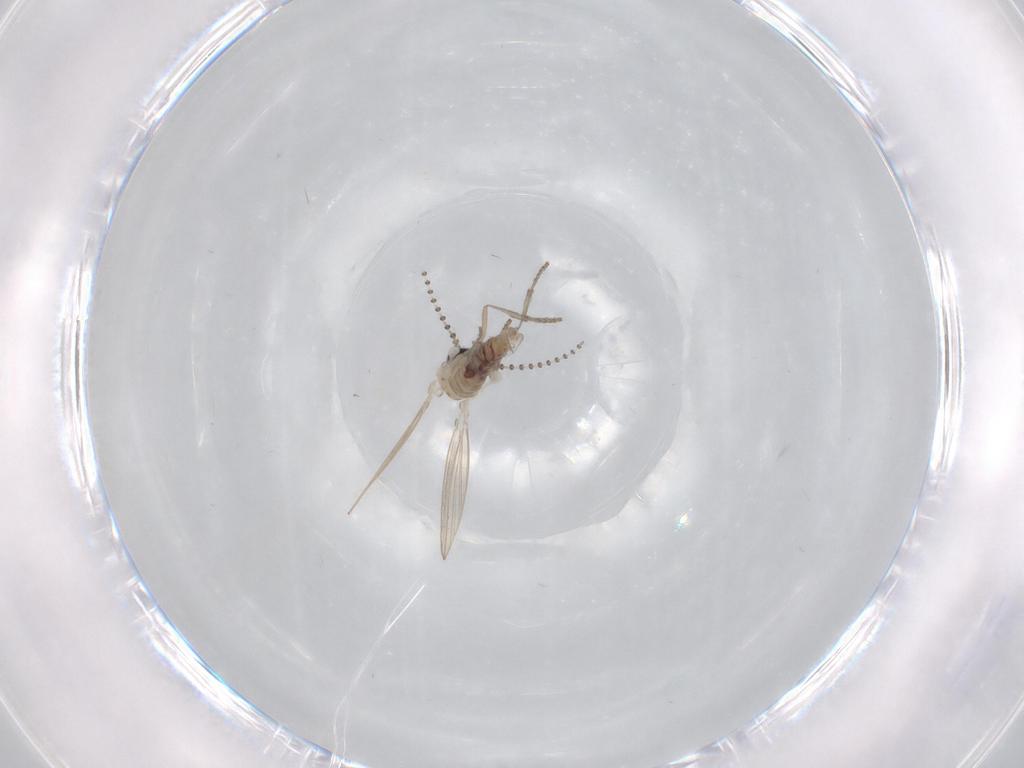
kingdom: Animalia
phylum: Arthropoda
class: Insecta
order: Diptera
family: Psychodidae
